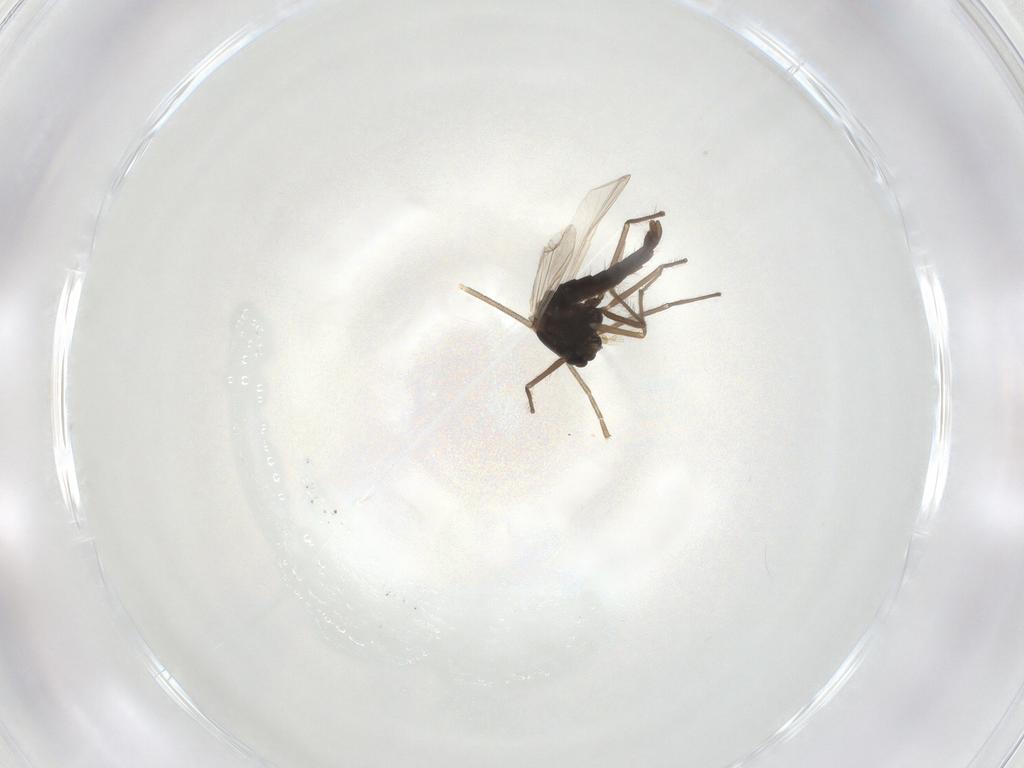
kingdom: Animalia
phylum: Arthropoda
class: Insecta
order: Diptera
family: Chironomidae
